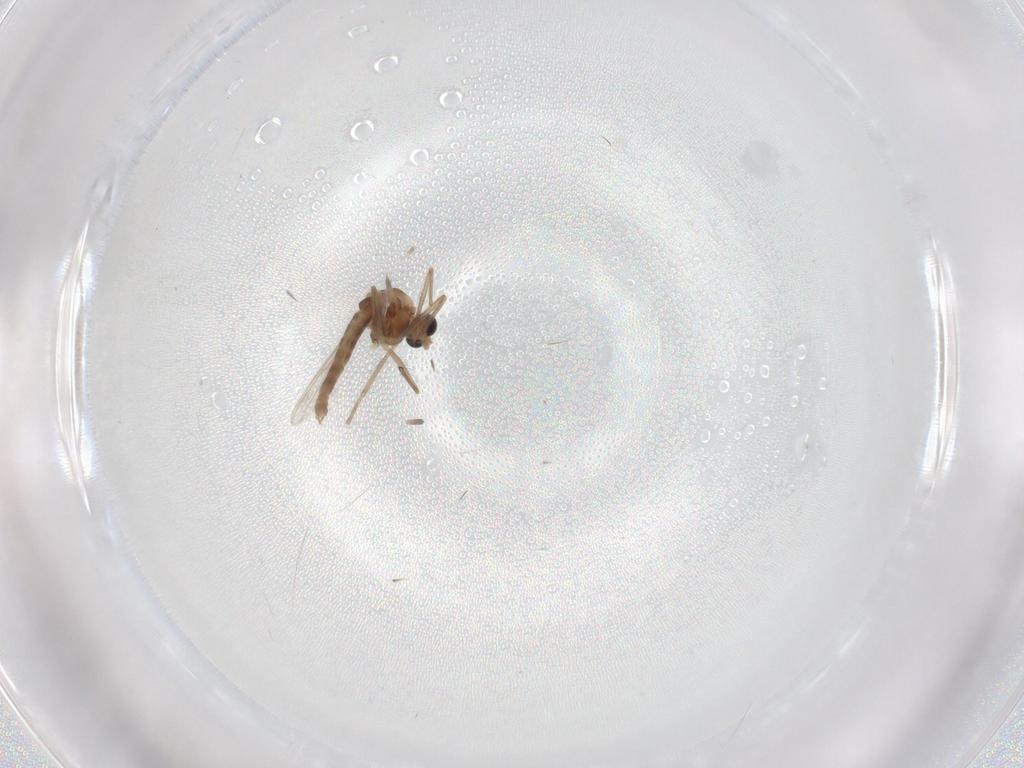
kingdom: Animalia
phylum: Arthropoda
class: Insecta
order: Diptera
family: Chironomidae
